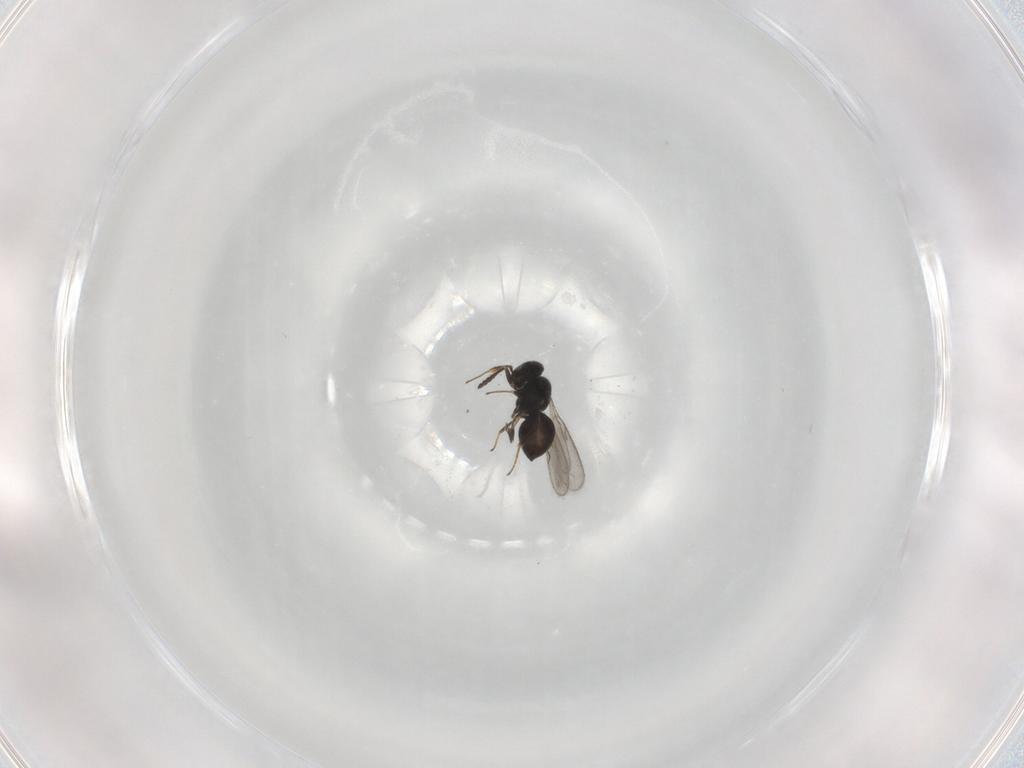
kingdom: Animalia
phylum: Arthropoda
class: Insecta
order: Hymenoptera
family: Scelionidae
